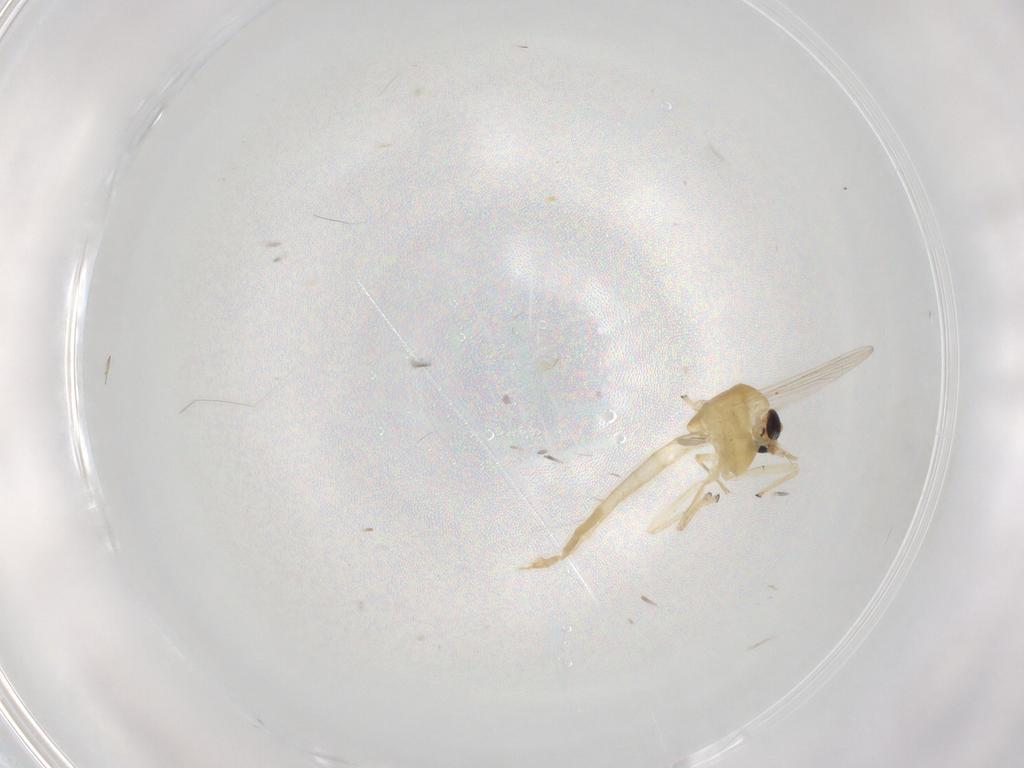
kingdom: Animalia
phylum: Arthropoda
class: Insecta
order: Diptera
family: Chironomidae
